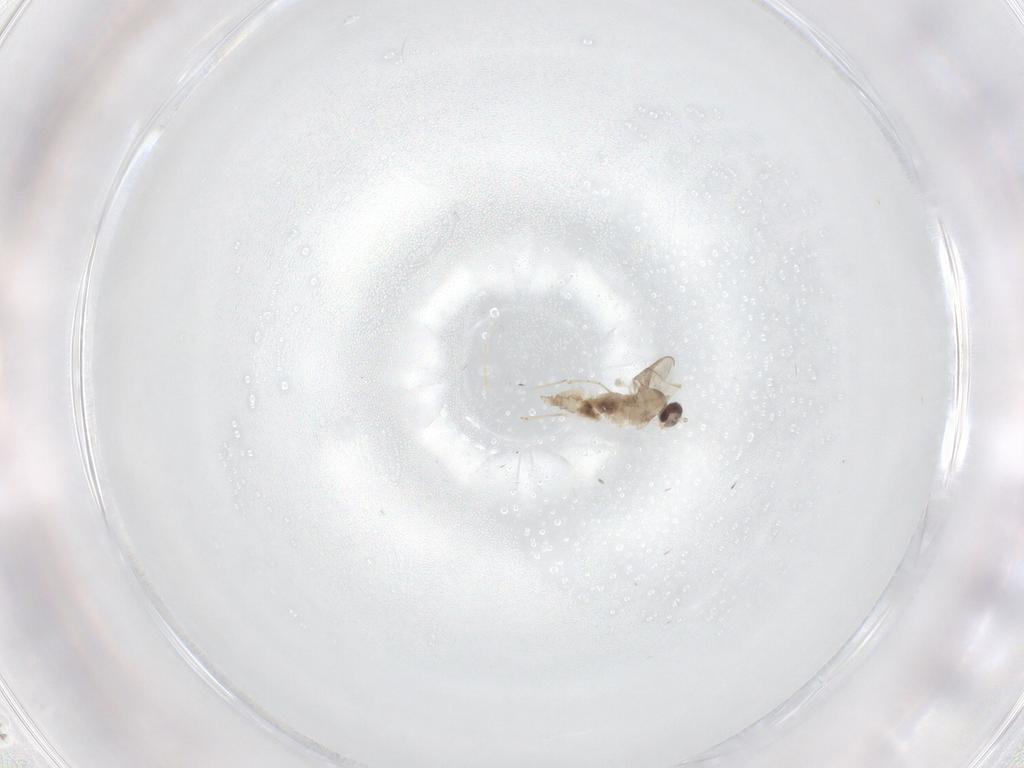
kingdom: Animalia
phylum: Arthropoda
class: Insecta
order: Diptera
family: Cecidomyiidae
